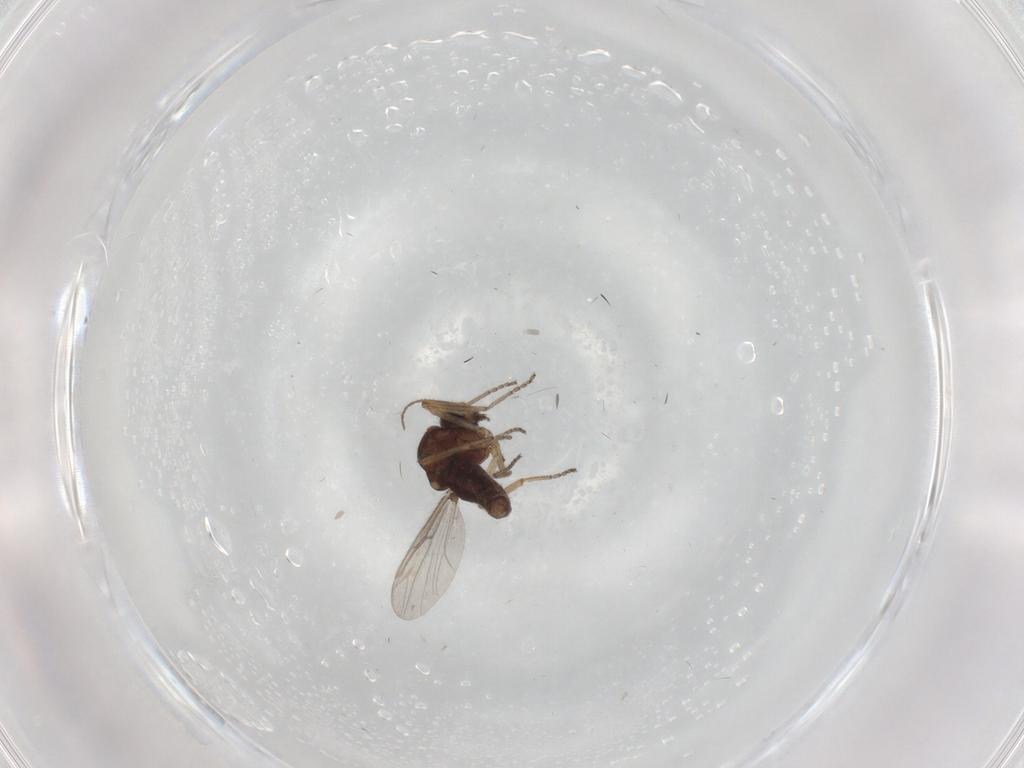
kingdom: Animalia
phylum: Arthropoda
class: Insecta
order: Diptera
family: Ceratopogonidae
